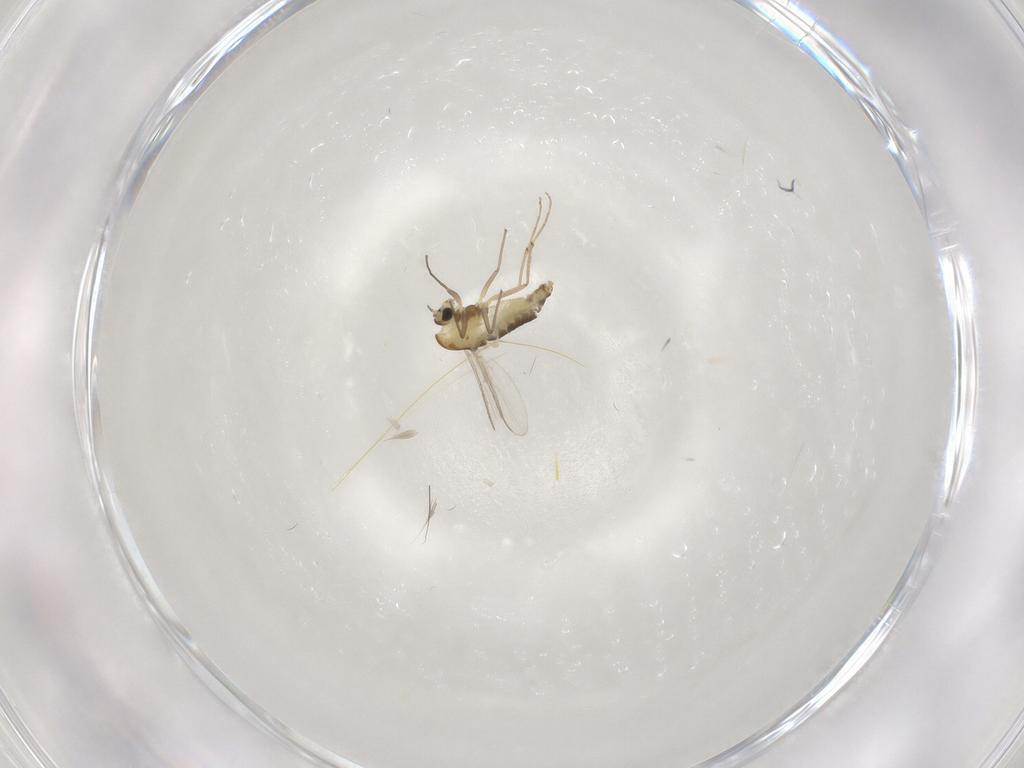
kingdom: Animalia
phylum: Arthropoda
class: Insecta
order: Diptera
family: Chironomidae
